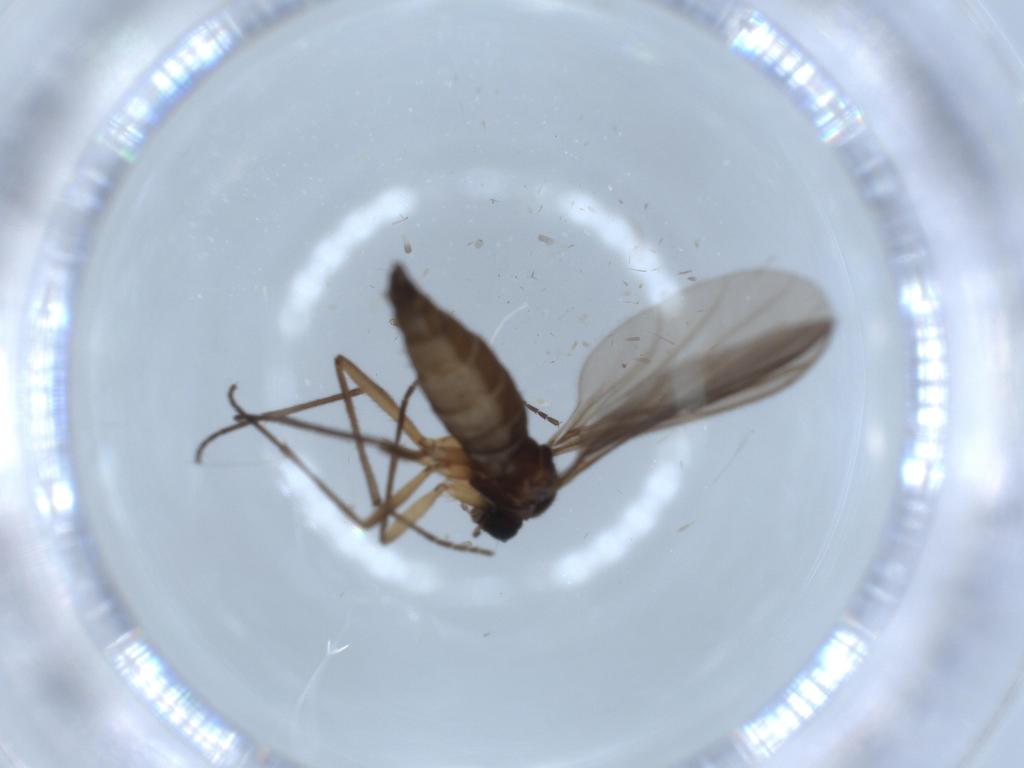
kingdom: Animalia
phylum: Arthropoda
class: Insecta
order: Diptera
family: Sciaridae
